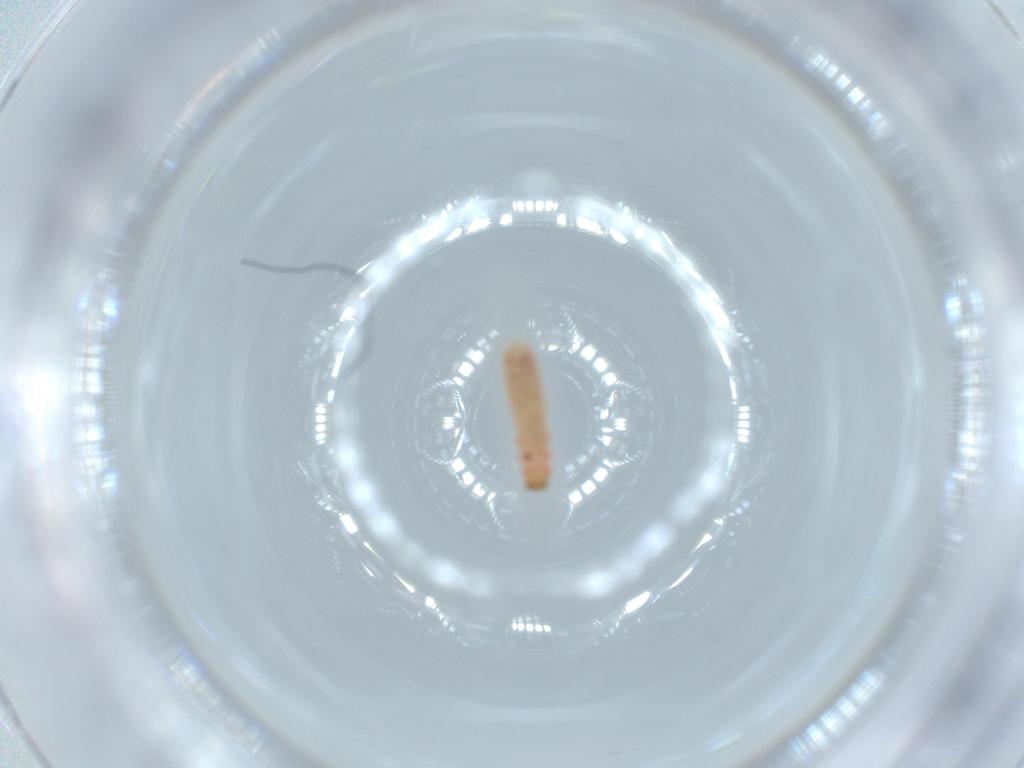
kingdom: Animalia
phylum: Arthropoda
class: Insecta
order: Coleoptera
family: Melyridae
